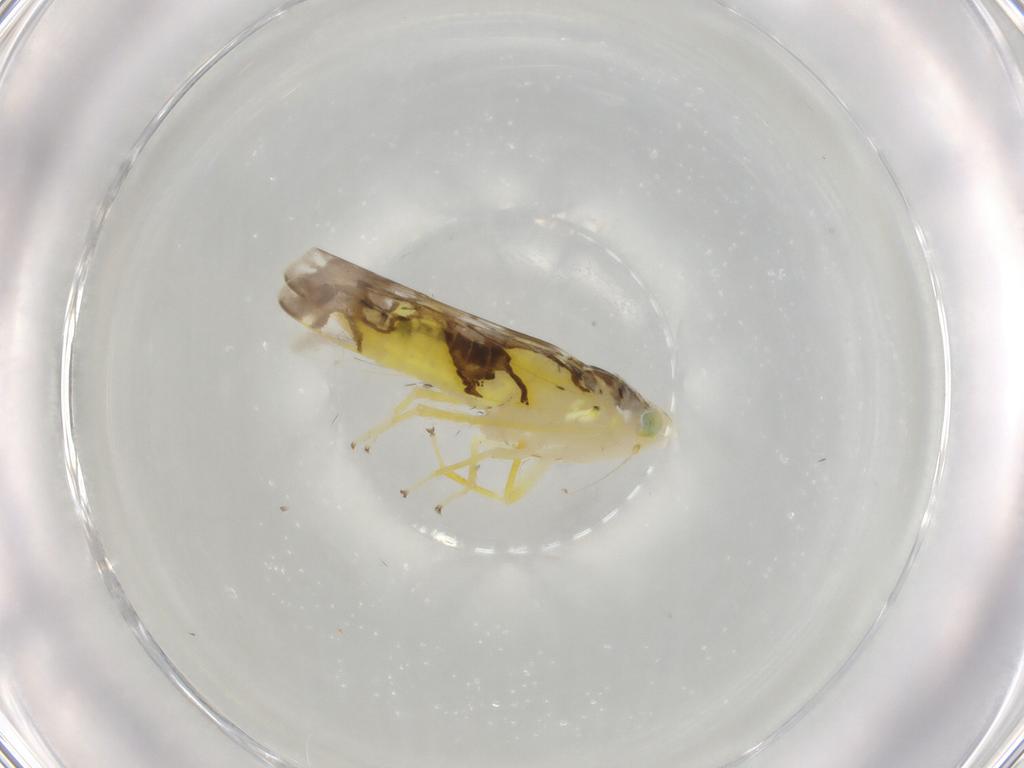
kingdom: Animalia
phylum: Arthropoda
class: Insecta
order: Hemiptera
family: Cicadellidae
